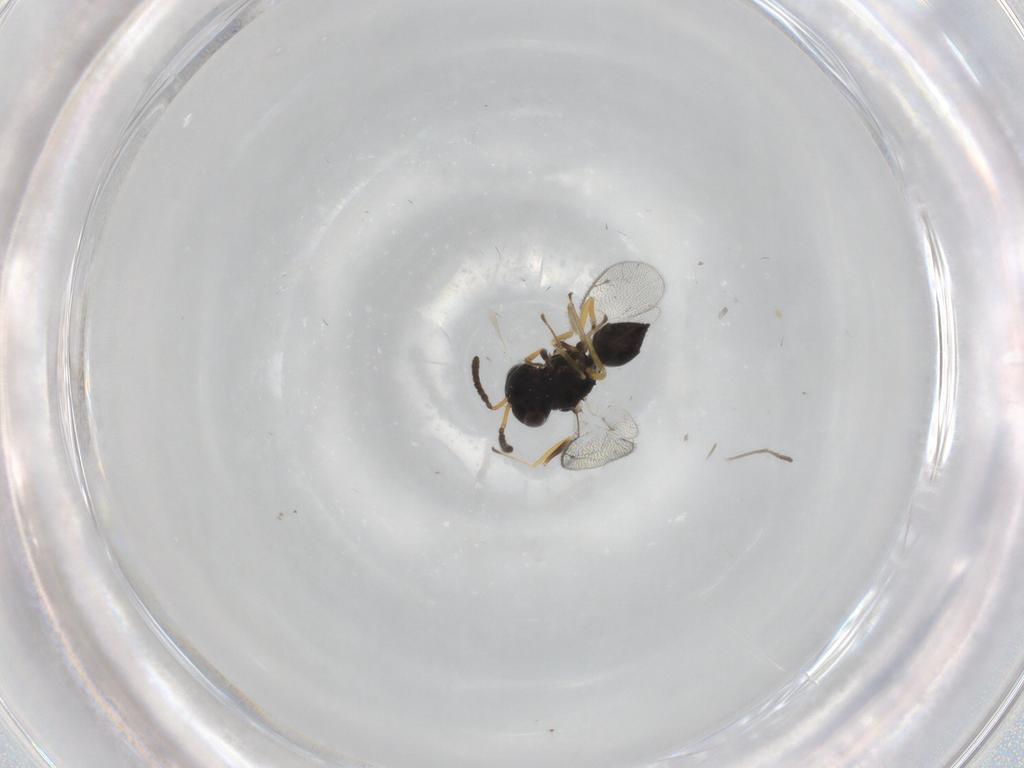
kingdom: Animalia
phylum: Arthropoda
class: Insecta
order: Hymenoptera
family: Pteromalidae
